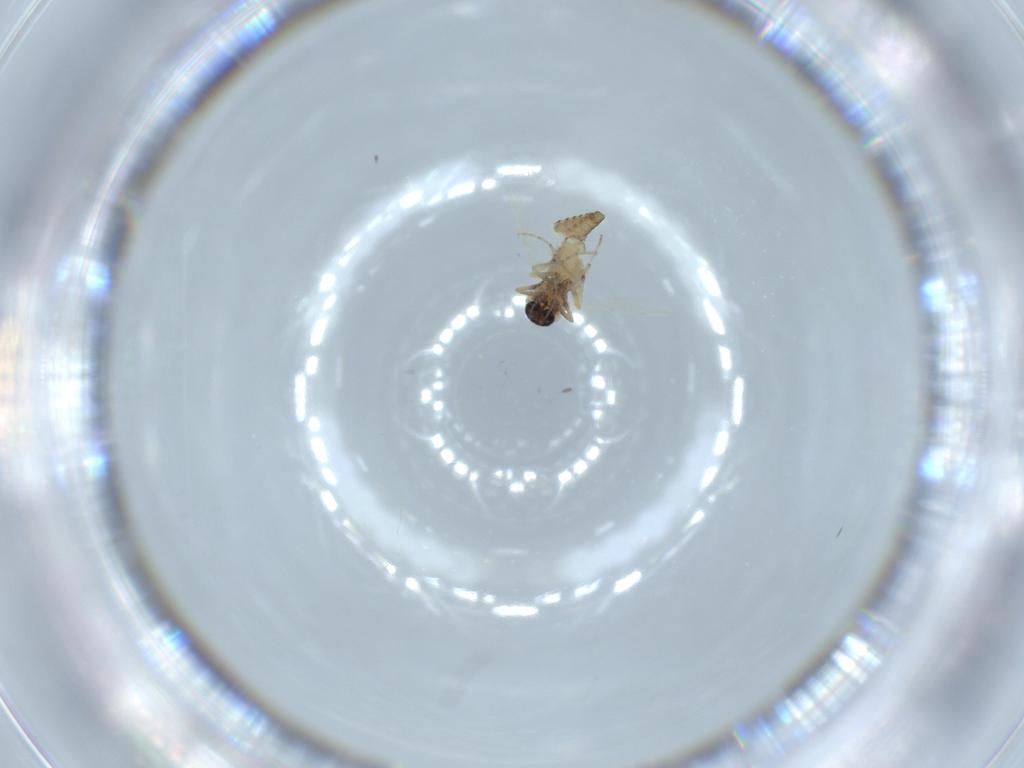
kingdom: Animalia
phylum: Arthropoda
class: Insecta
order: Diptera
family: Ceratopogonidae
